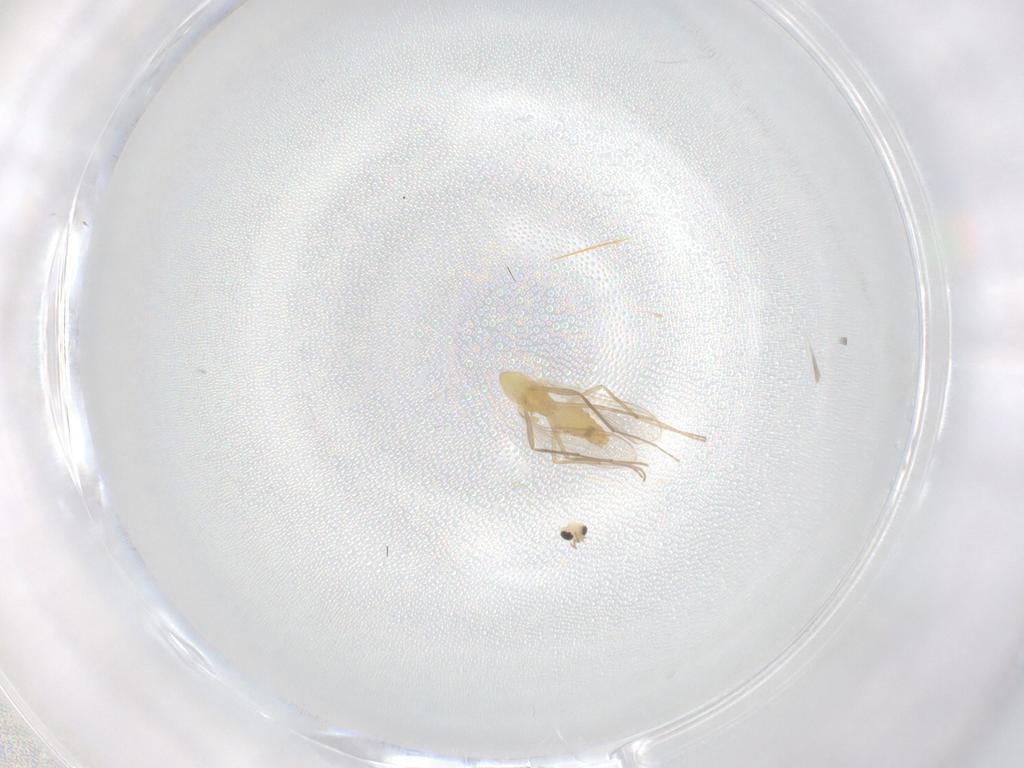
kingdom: Animalia
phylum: Arthropoda
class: Insecta
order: Diptera
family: Chironomidae
